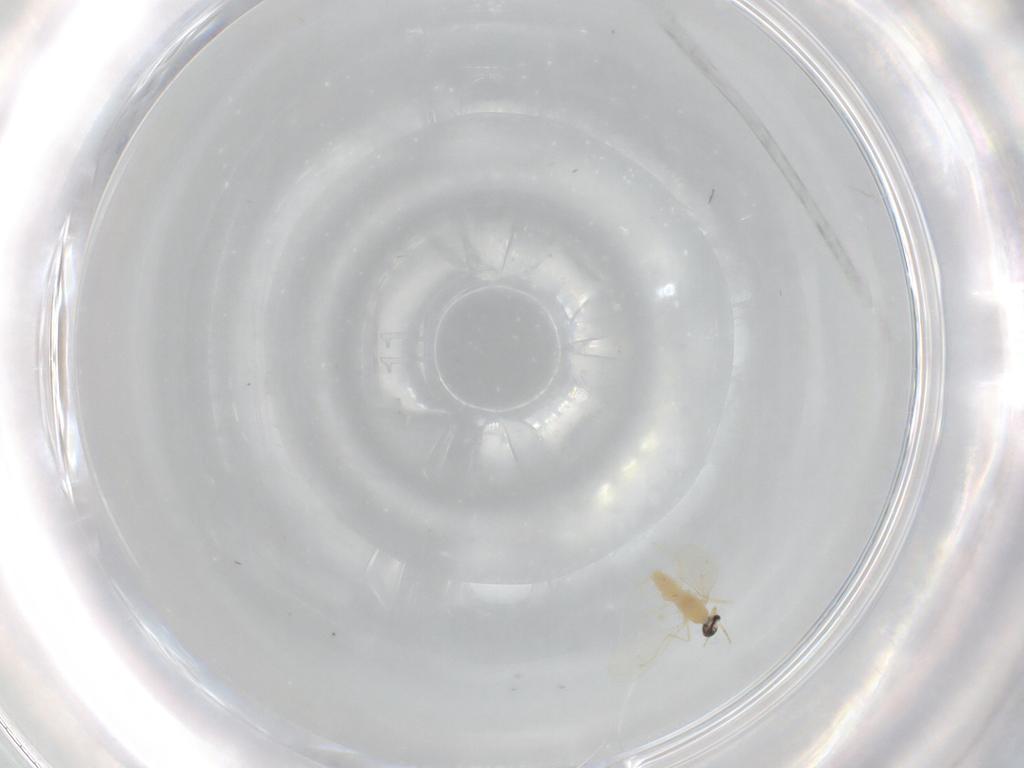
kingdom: Animalia
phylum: Arthropoda
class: Insecta
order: Diptera
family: Cecidomyiidae
